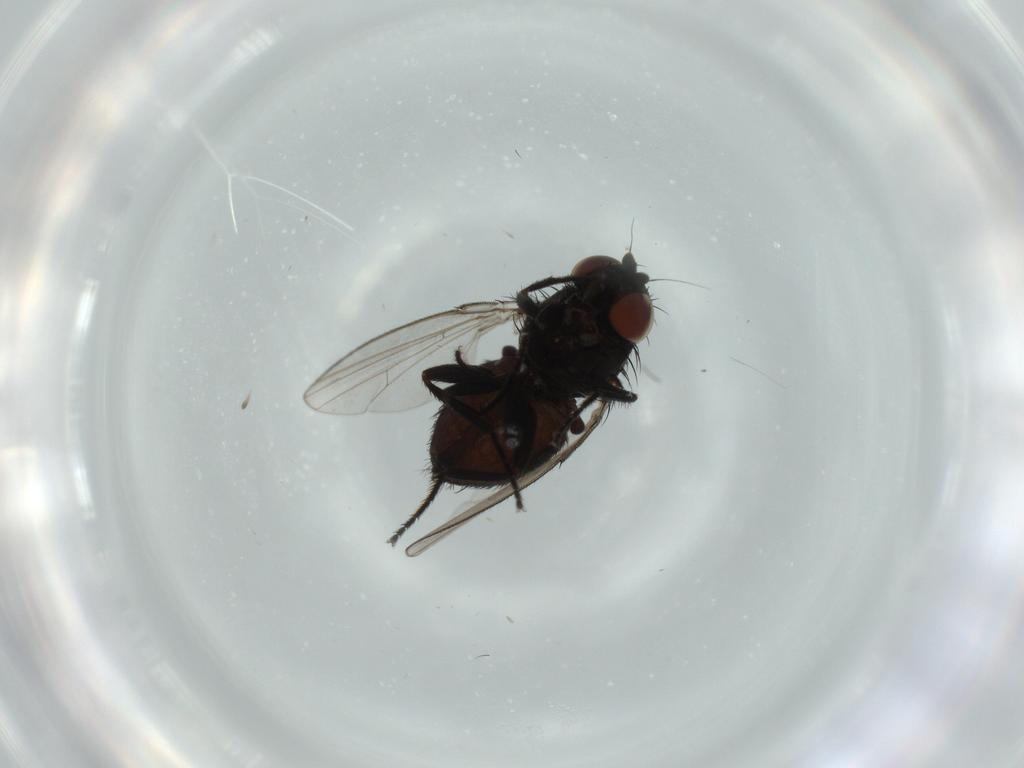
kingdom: Animalia
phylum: Arthropoda
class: Insecta
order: Diptera
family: Milichiidae
